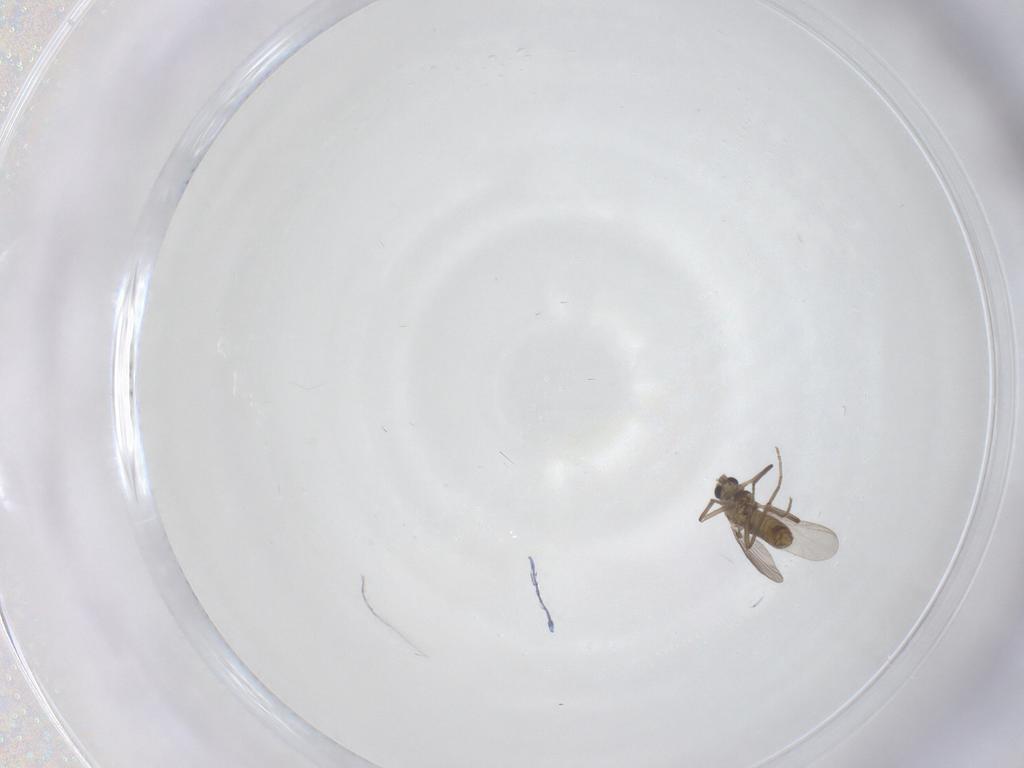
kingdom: Animalia
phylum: Arthropoda
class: Insecta
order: Diptera
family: Chironomidae
